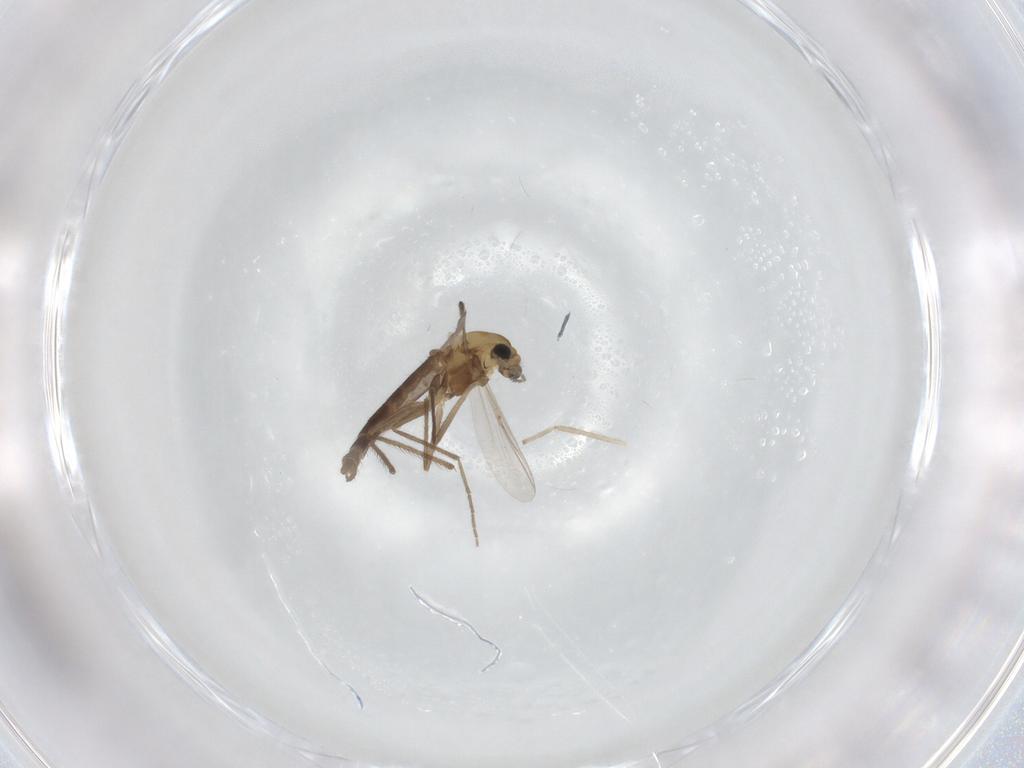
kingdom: Animalia
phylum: Arthropoda
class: Insecta
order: Diptera
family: Chironomidae
